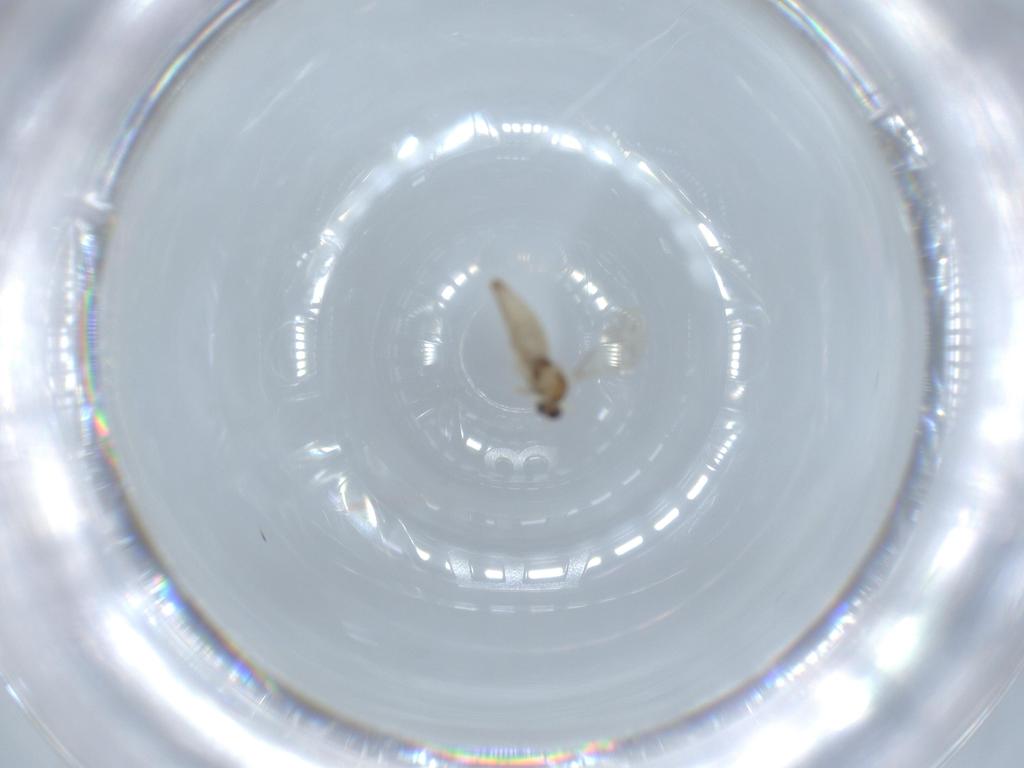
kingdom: Animalia
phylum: Arthropoda
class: Insecta
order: Diptera
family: Cecidomyiidae
